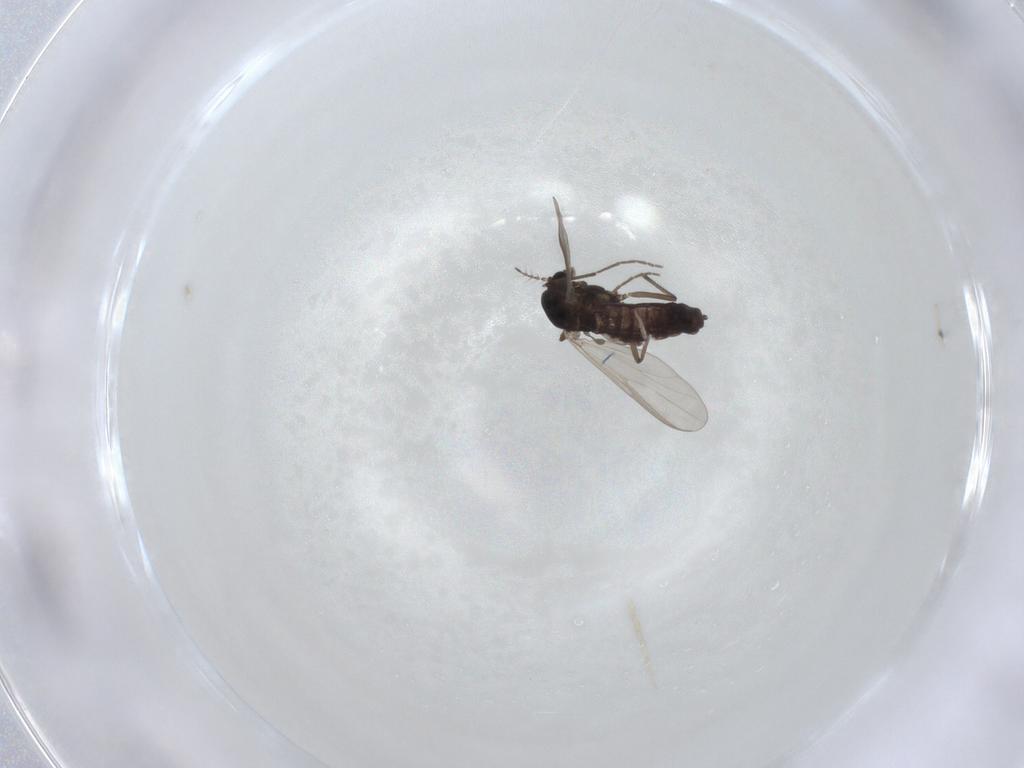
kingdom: Animalia
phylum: Arthropoda
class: Insecta
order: Diptera
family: Chironomidae
